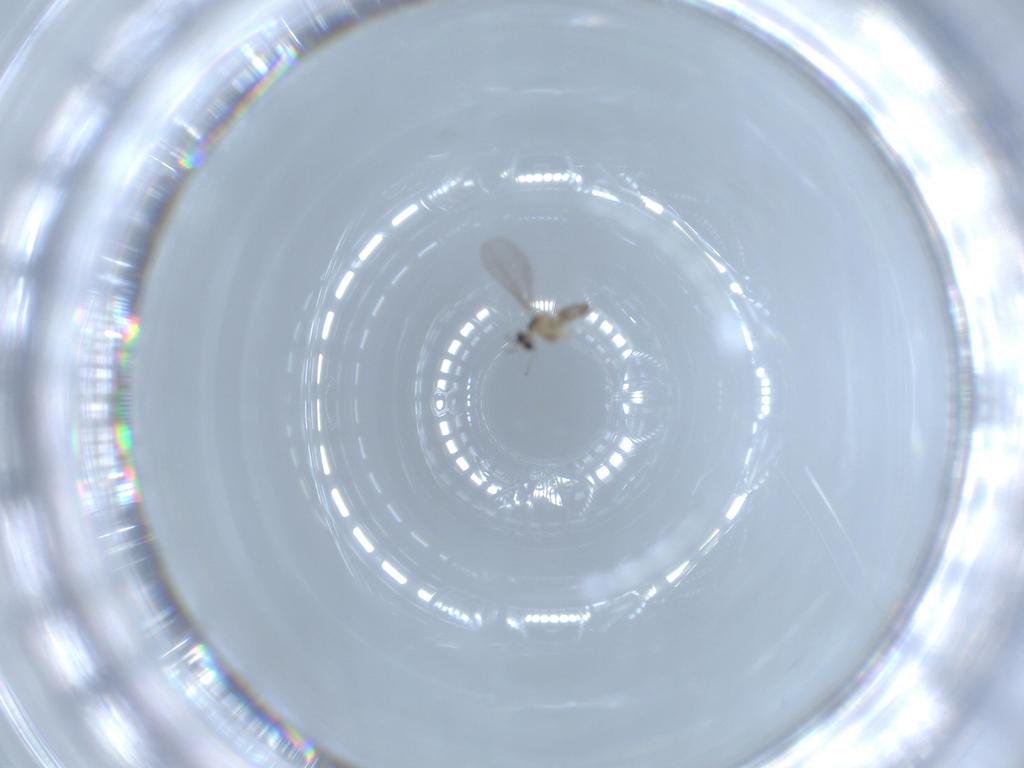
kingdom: Animalia
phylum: Arthropoda
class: Insecta
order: Diptera
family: Cecidomyiidae
